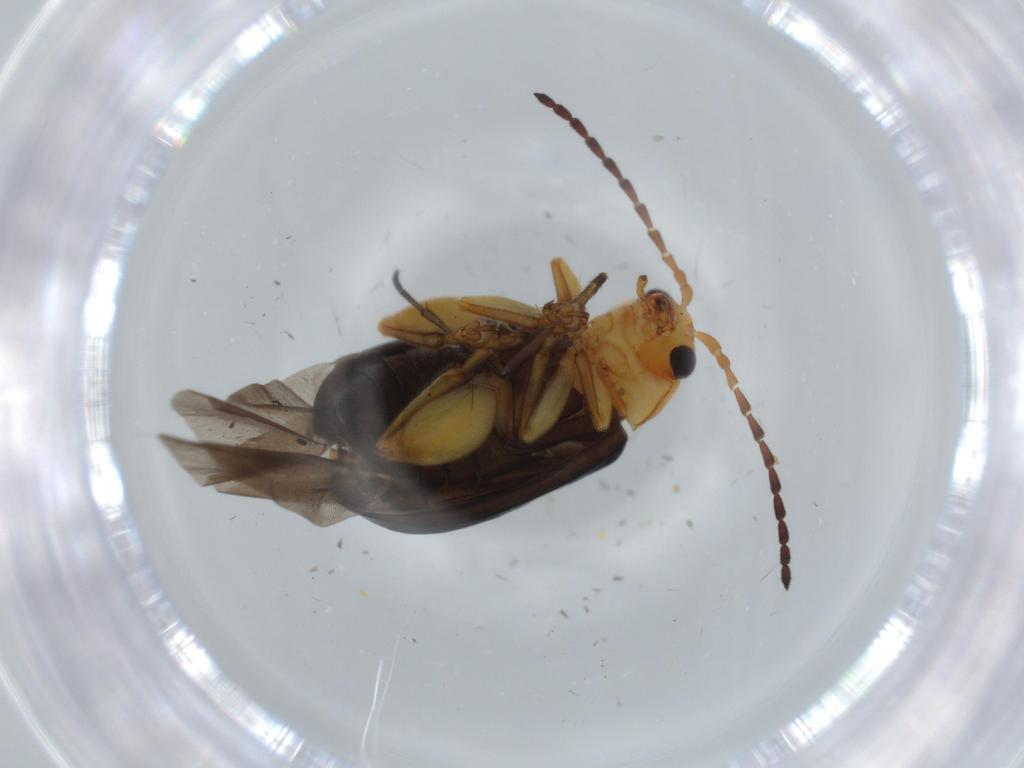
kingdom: Animalia
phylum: Arthropoda
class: Insecta
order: Coleoptera
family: Chrysomelidae
